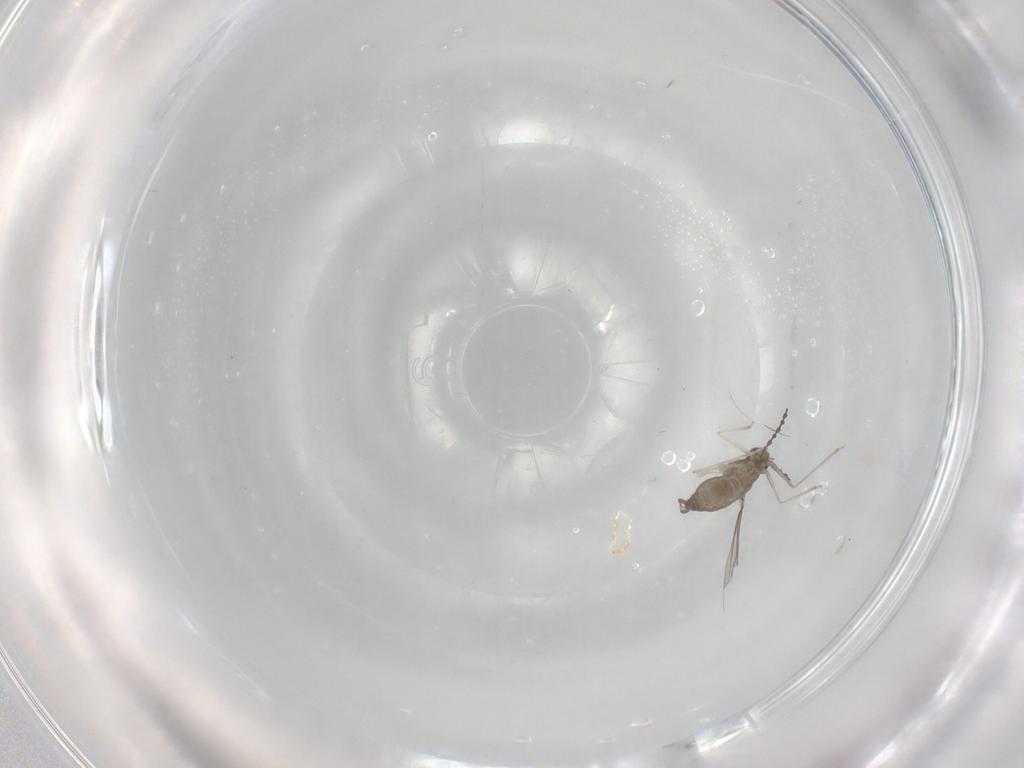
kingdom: Animalia
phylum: Arthropoda
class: Insecta
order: Diptera
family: Cecidomyiidae
